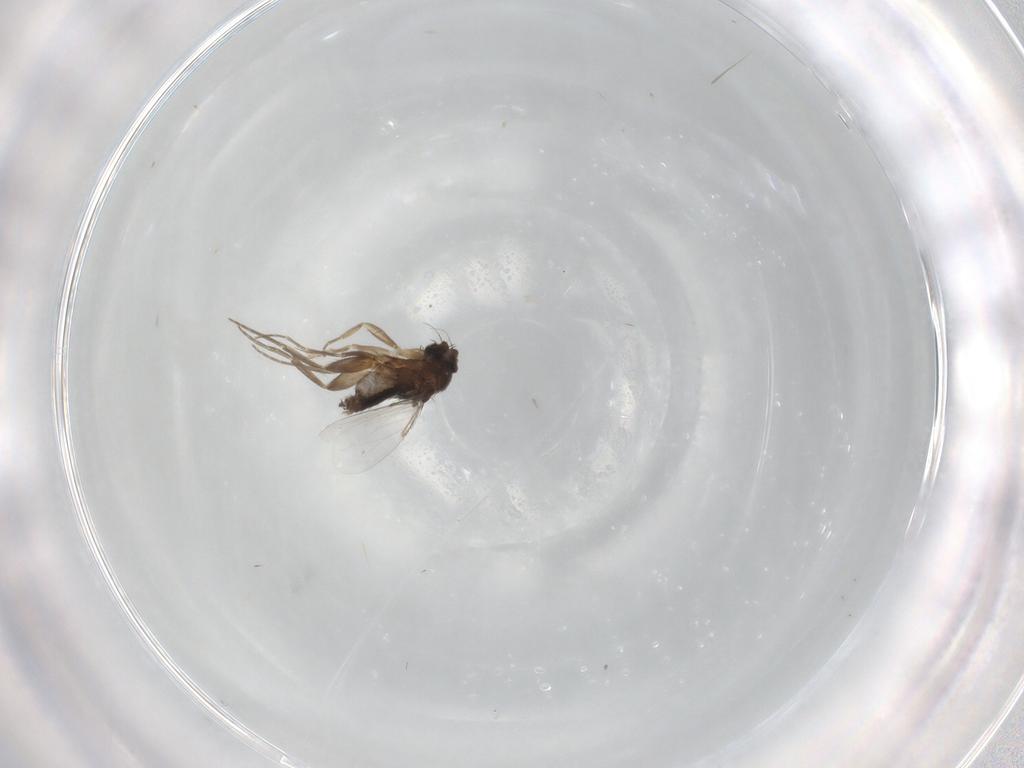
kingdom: Animalia
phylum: Arthropoda
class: Insecta
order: Diptera
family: Phoridae
